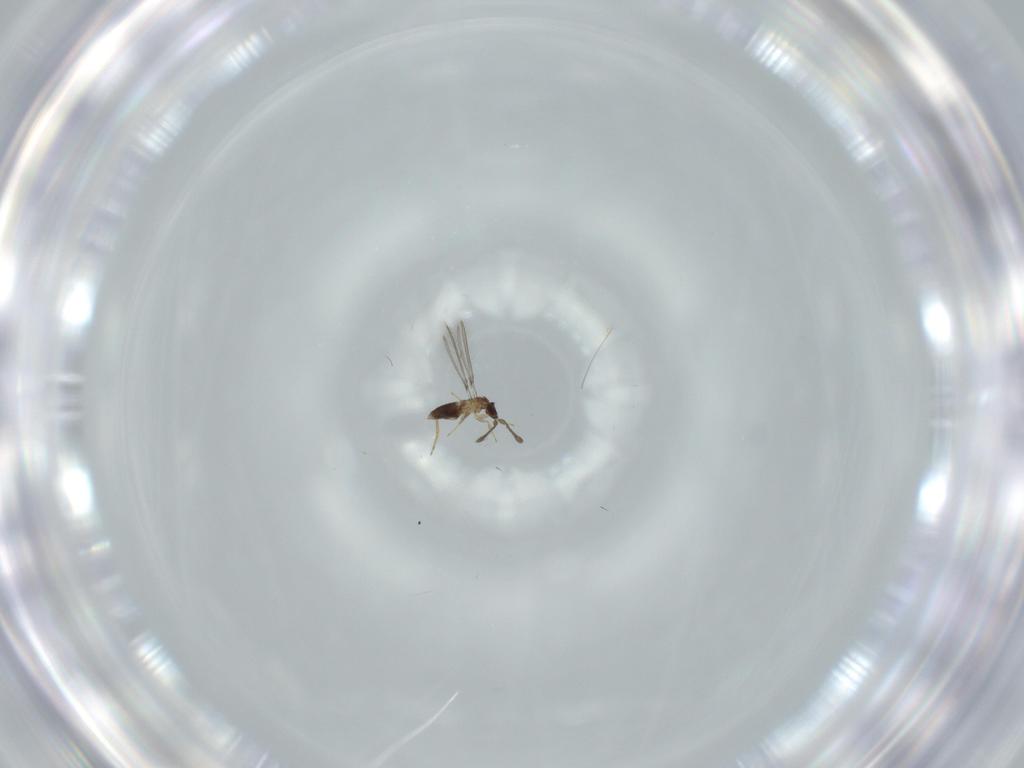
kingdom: Animalia
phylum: Arthropoda
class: Insecta
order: Hymenoptera
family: Mymaridae
